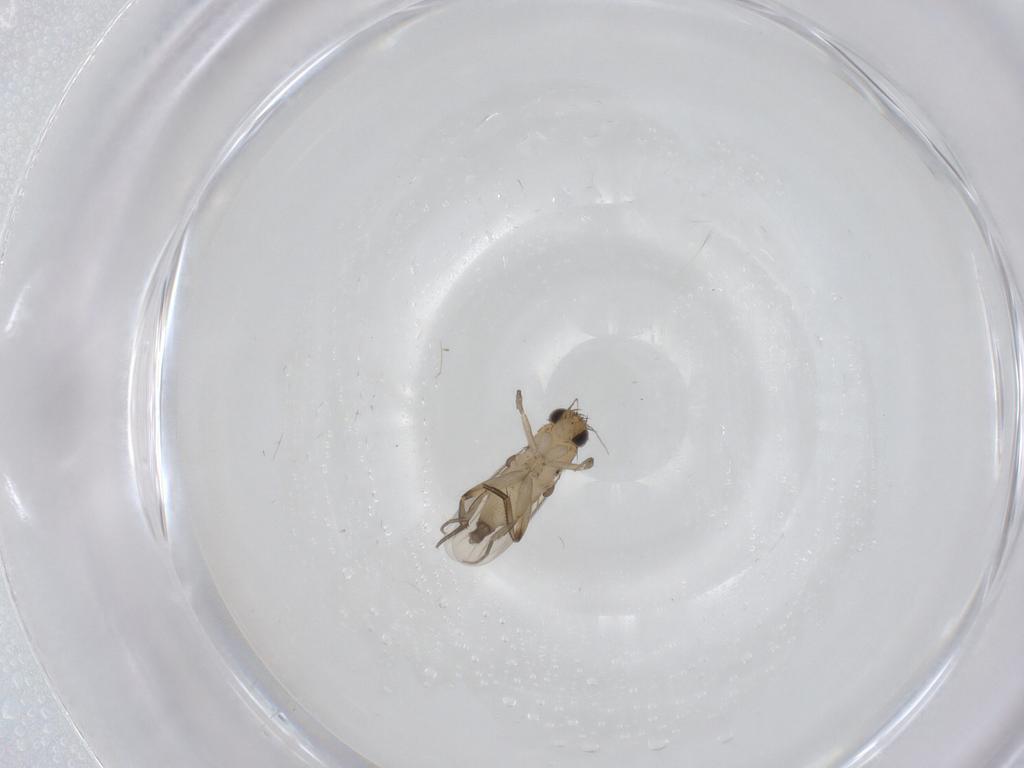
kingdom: Animalia
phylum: Arthropoda
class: Insecta
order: Diptera
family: Phoridae
